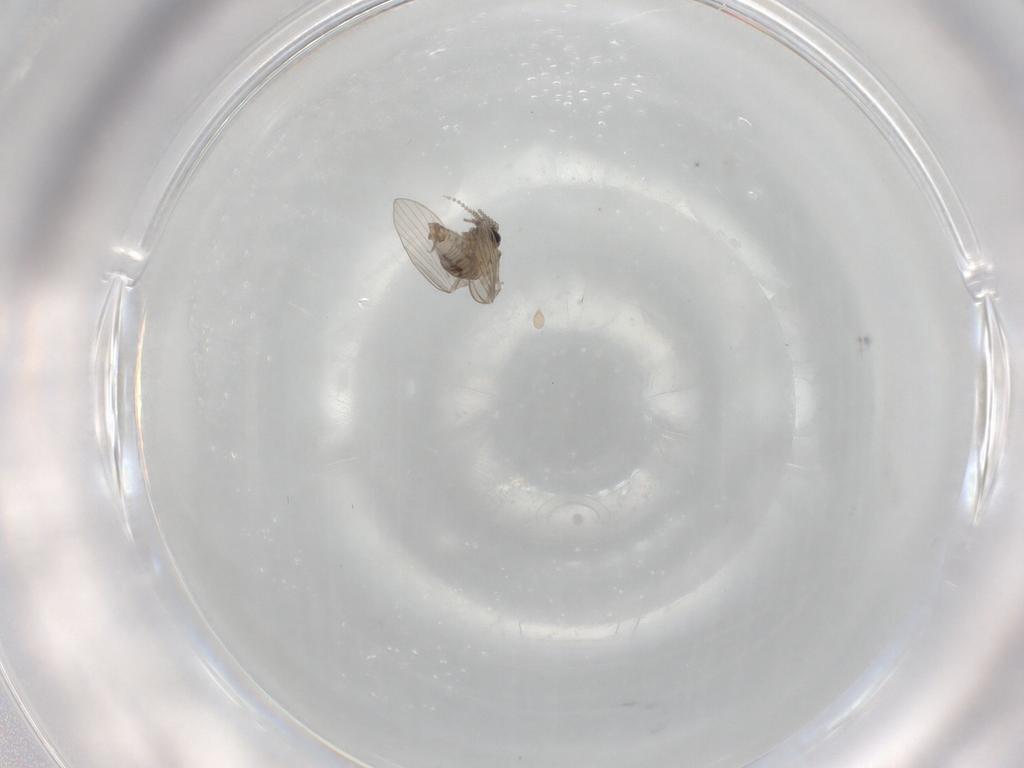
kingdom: Animalia
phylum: Arthropoda
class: Insecta
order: Diptera
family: Psychodidae
